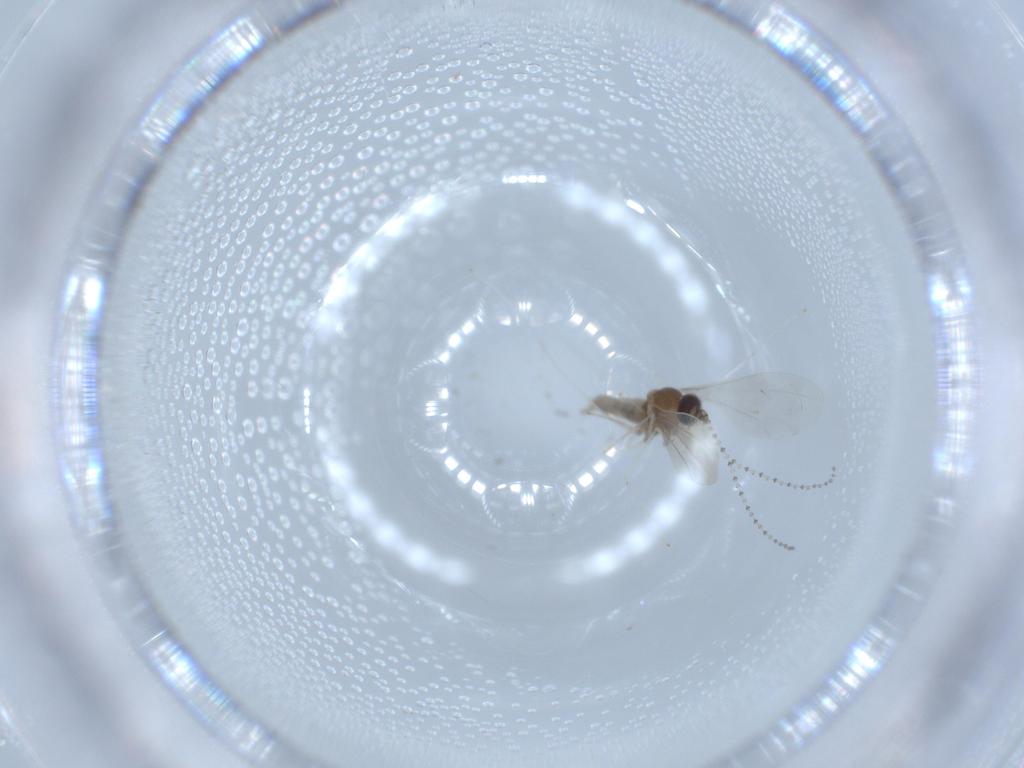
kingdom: Animalia
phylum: Arthropoda
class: Insecta
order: Diptera
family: Cecidomyiidae
